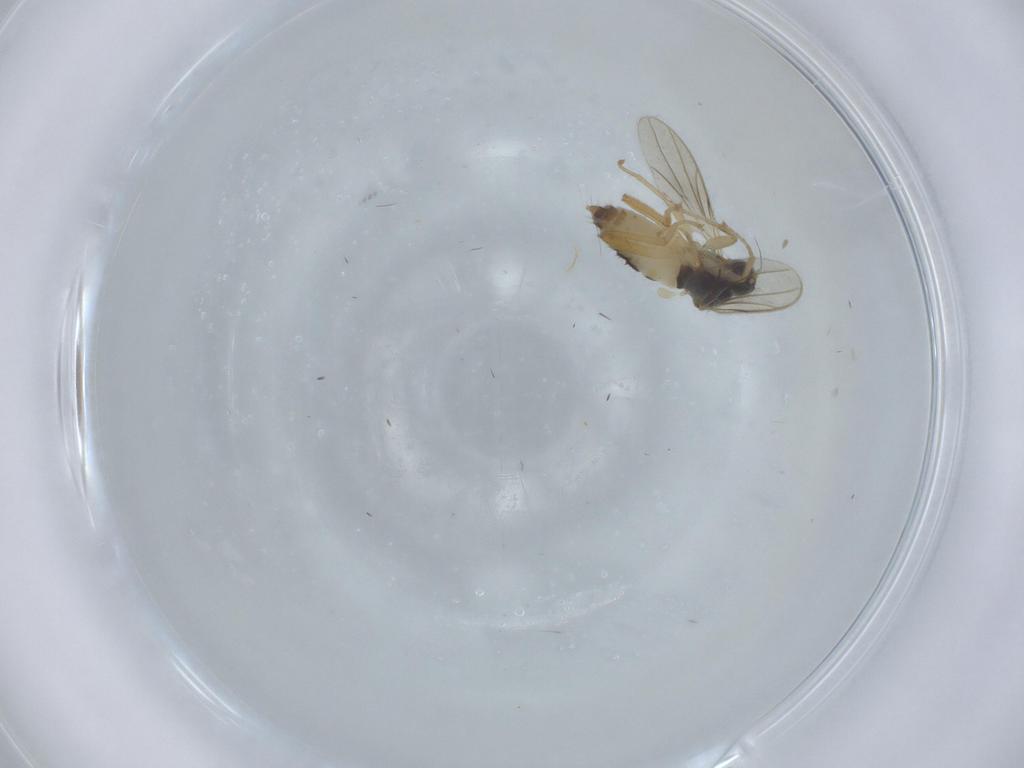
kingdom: Animalia
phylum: Arthropoda
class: Insecta
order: Diptera
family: Hybotidae
